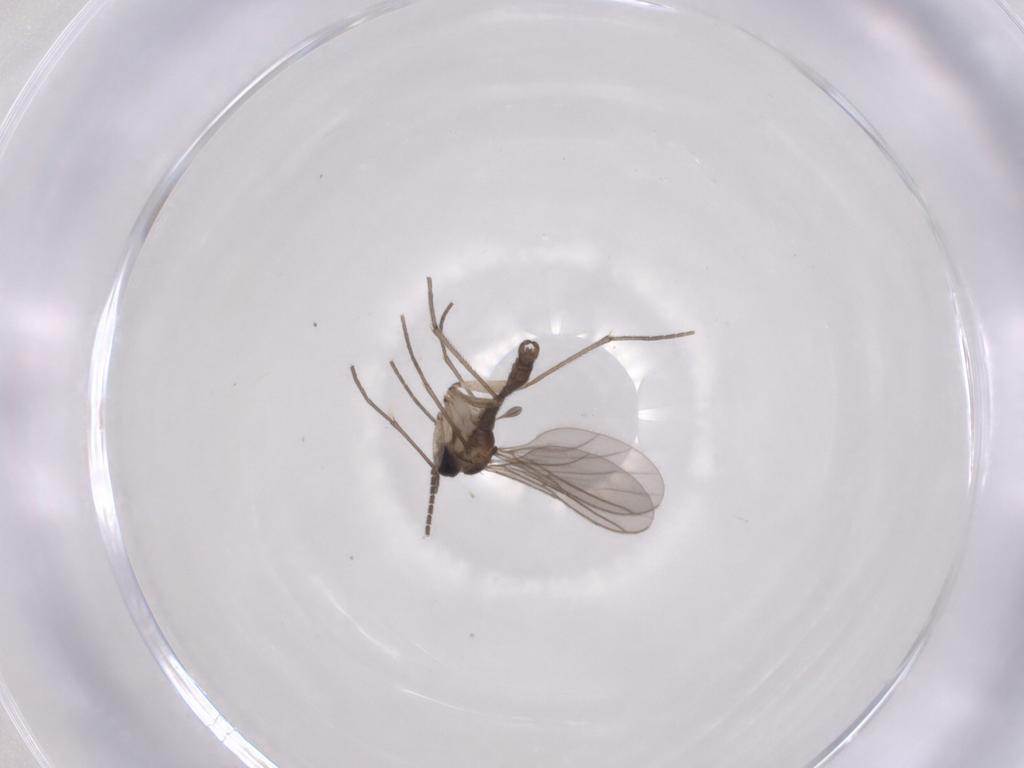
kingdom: Animalia
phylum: Arthropoda
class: Insecta
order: Diptera
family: Sciaridae
